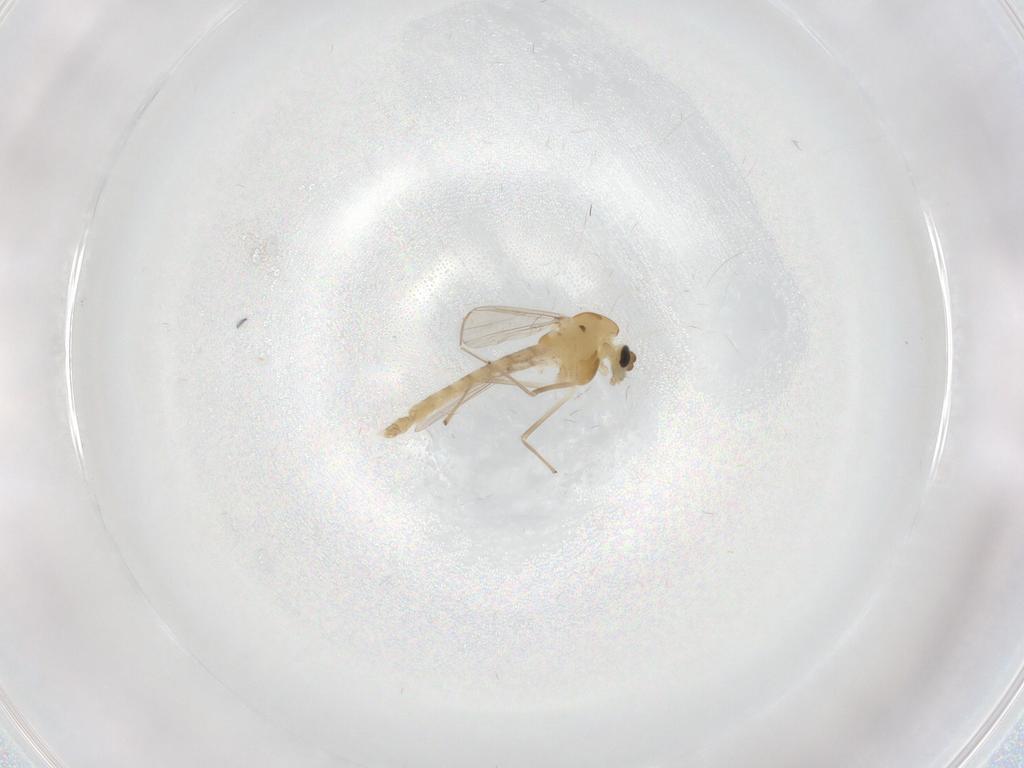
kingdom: Animalia
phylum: Arthropoda
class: Insecta
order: Diptera
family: Chironomidae
